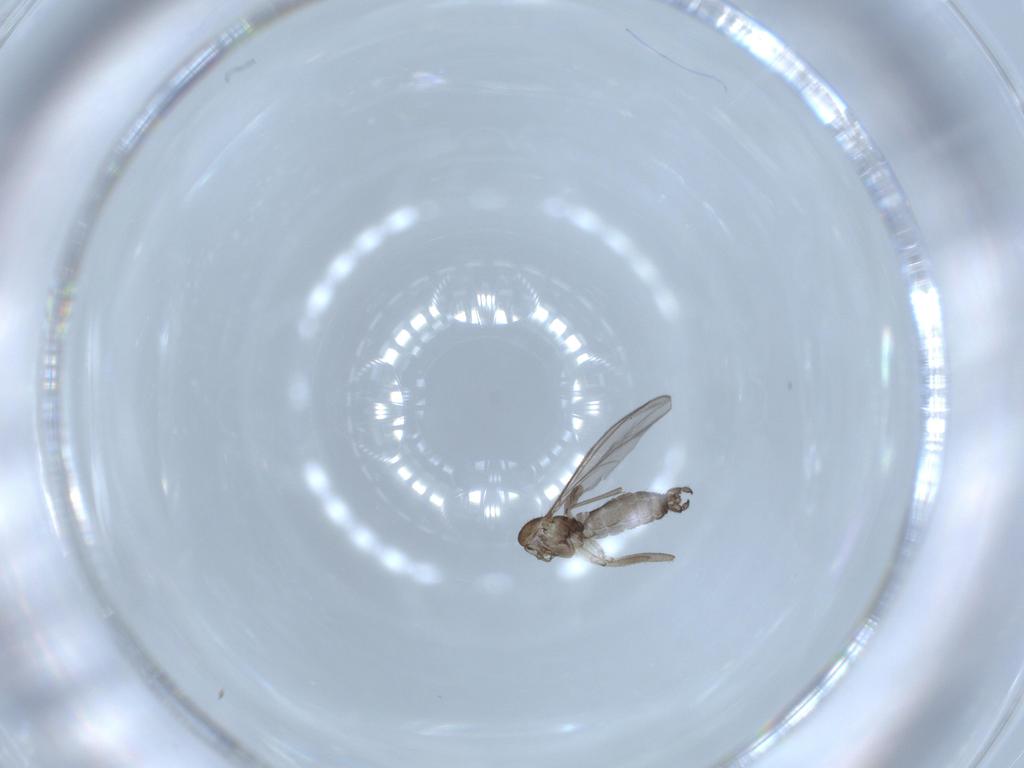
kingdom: Animalia
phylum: Arthropoda
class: Insecta
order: Diptera
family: Sciaridae
